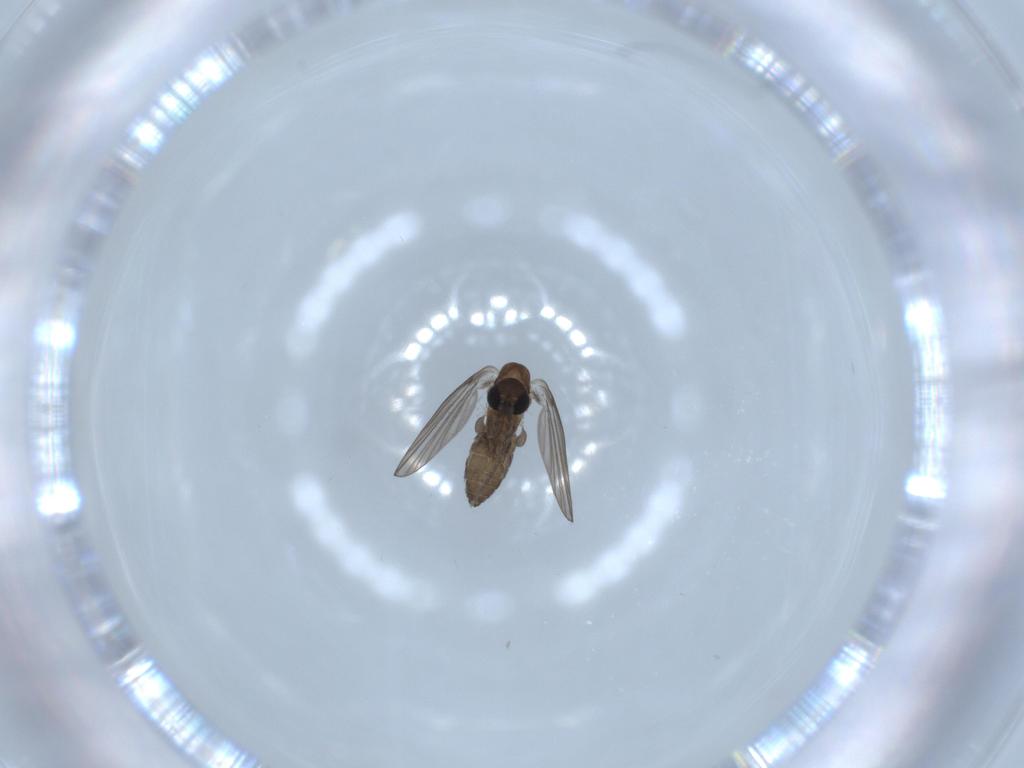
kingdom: Animalia
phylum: Arthropoda
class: Insecta
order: Diptera
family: Psychodidae
